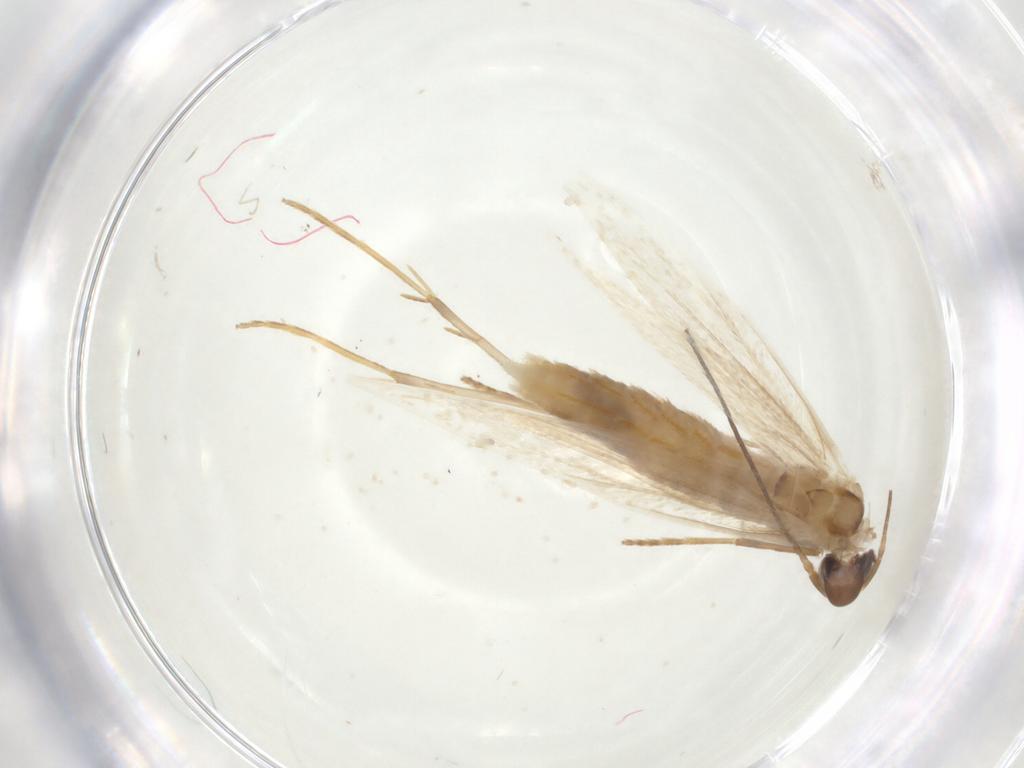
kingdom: Animalia
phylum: Arthropoda
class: Insecta
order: Lepidoptera
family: Coleophoridae
